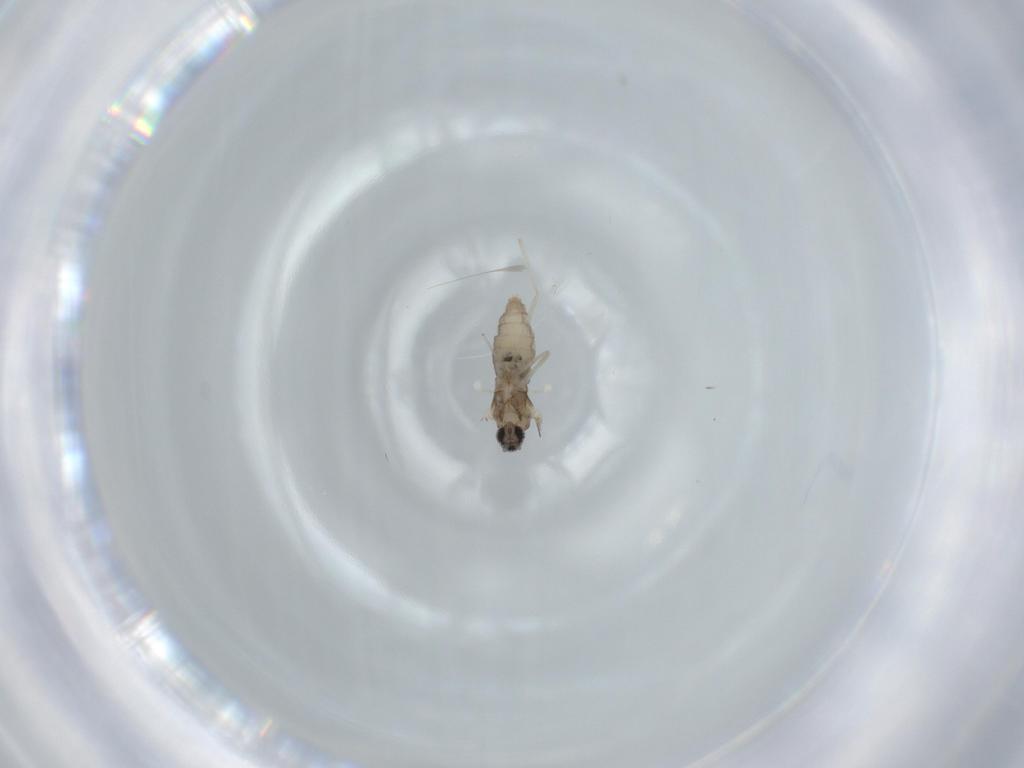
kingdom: Animalia
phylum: Arthropoda
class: Insecta
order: Diptera
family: Cecidomyiidae
